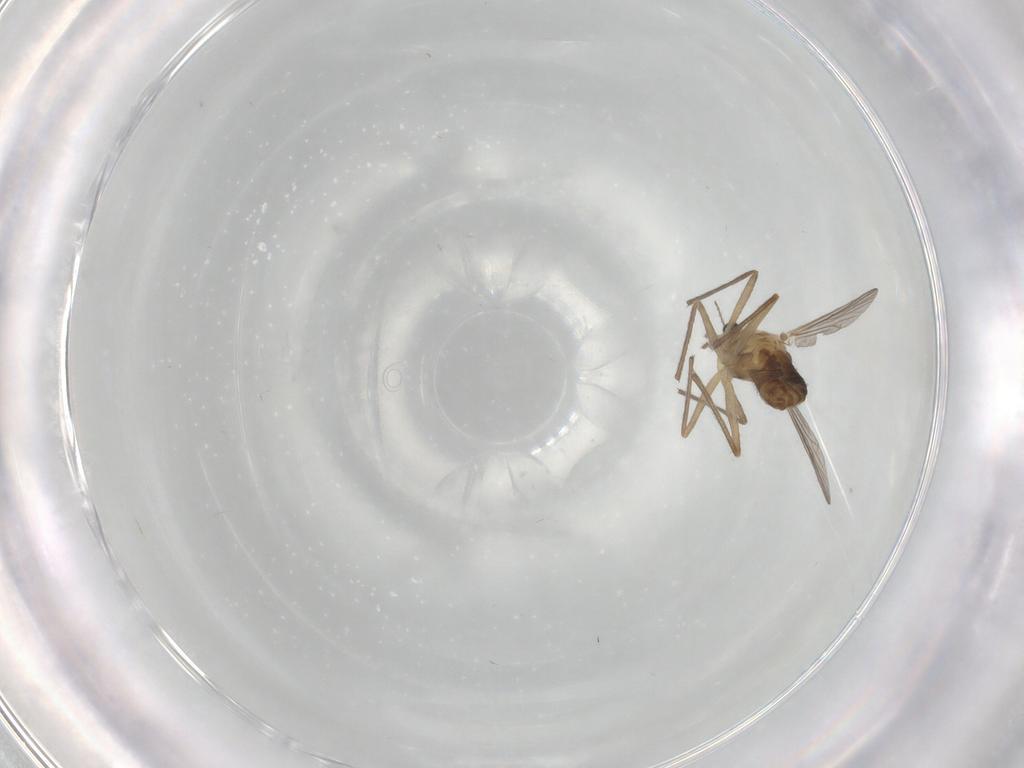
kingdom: Animalia
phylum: Arthropoda
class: Insecta
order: Diptera
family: Chironomidae
